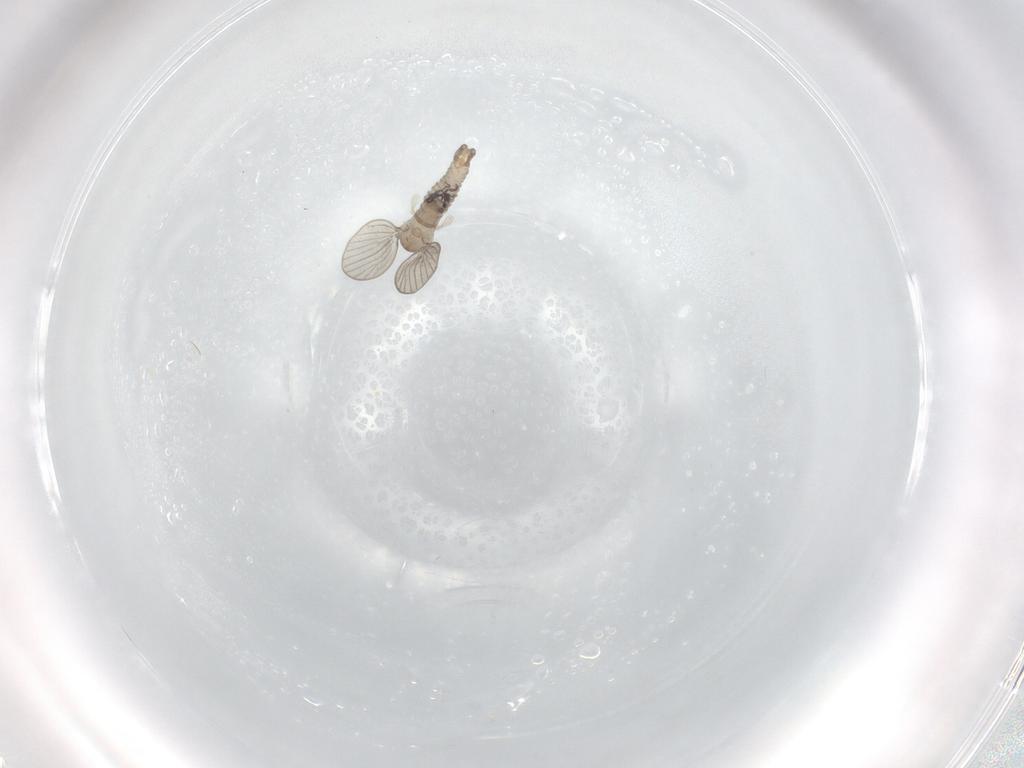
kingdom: Animalia
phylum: Arthropoda
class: Insecta
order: Diptera
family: Psychodidae
